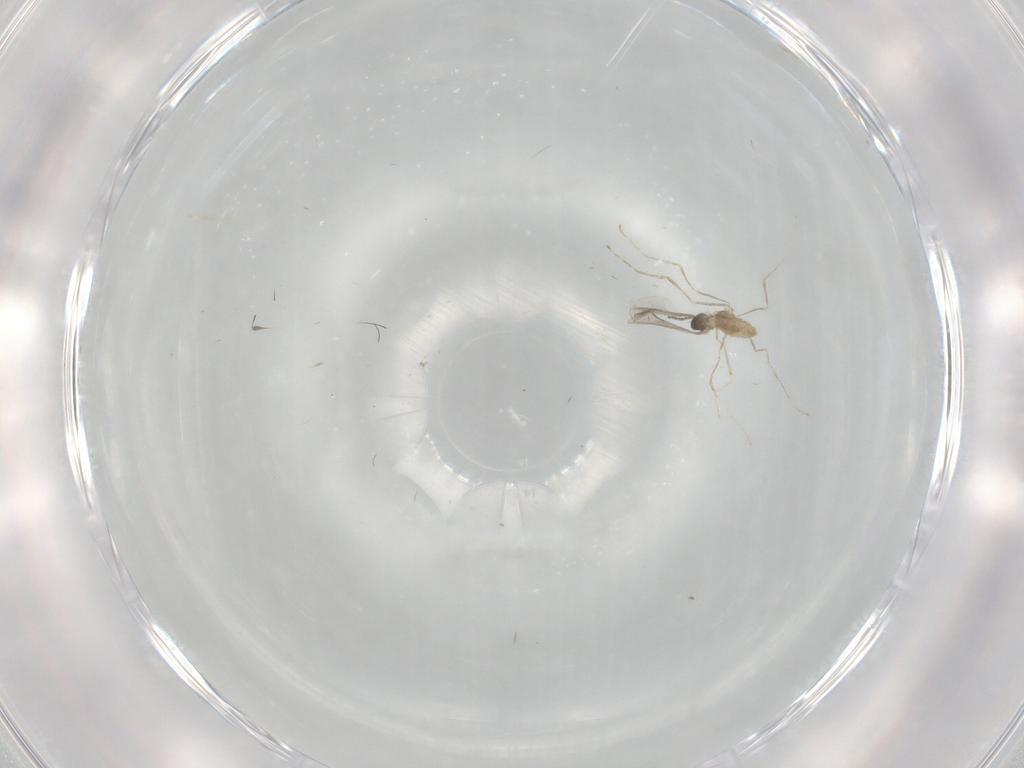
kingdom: Animalia
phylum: Arthropoda
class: Insecta
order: Diptera
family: Cecidomyiidae
